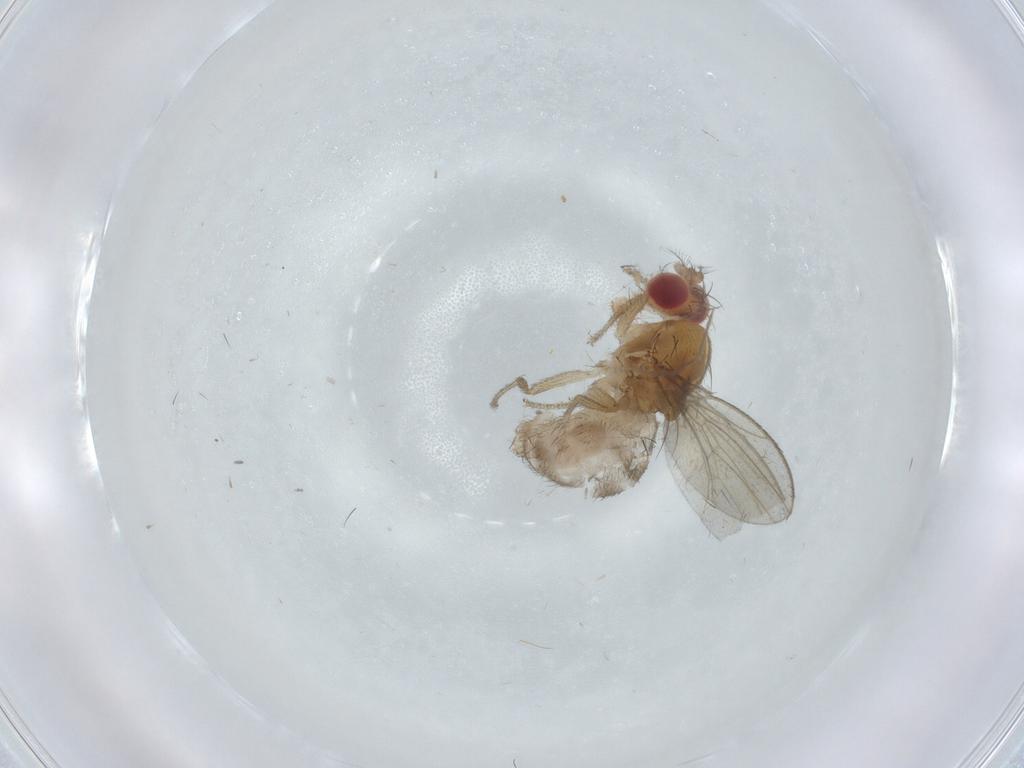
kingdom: Animalia
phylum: Arthropoda
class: Insecta
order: Diptera
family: Drosophilidae
